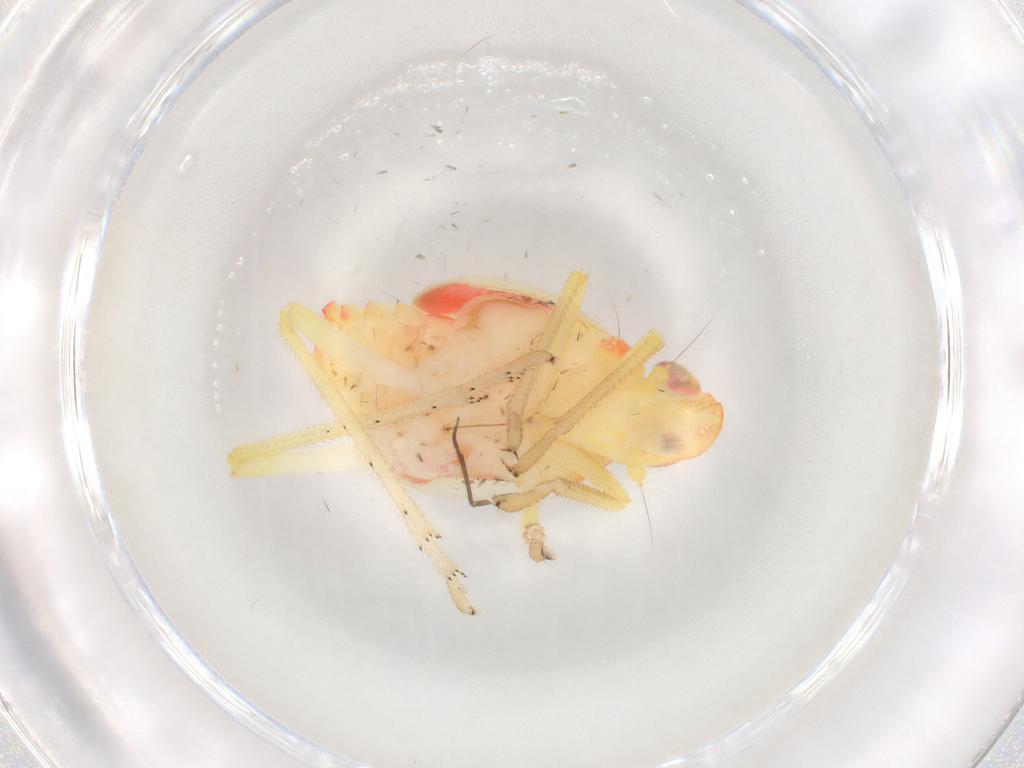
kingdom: Animalia
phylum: Arthropoda
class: Insecta
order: Hemiptera
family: Tropiduchidae
